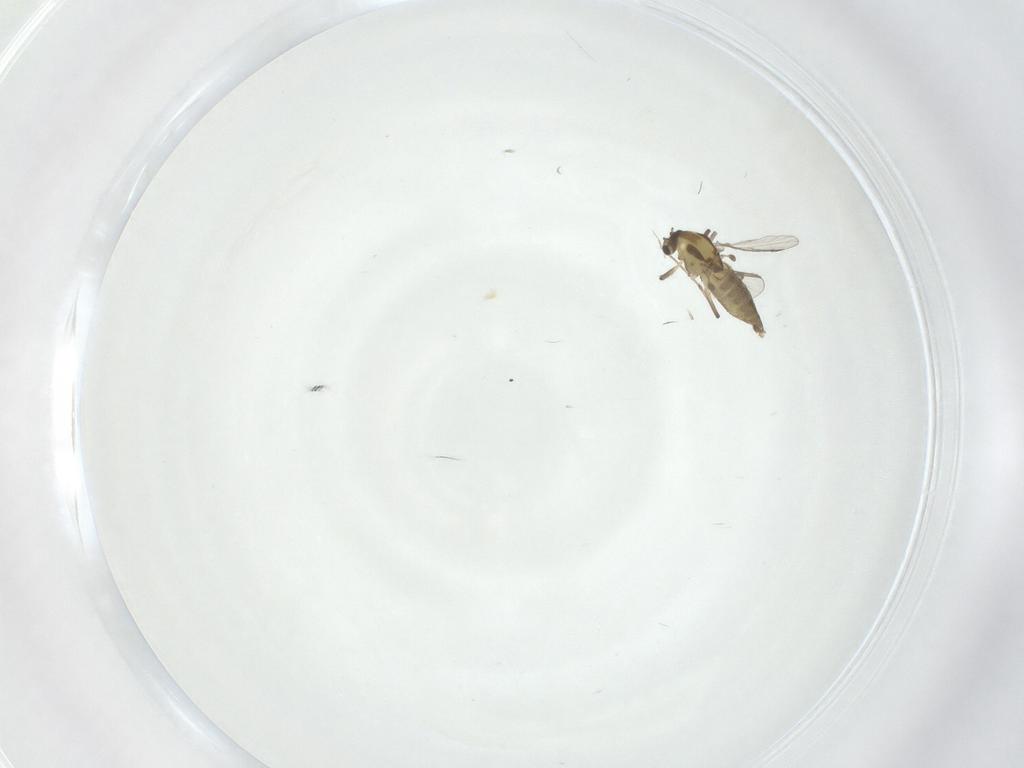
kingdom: Animalia
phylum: Arthropoda
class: Insecta
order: Diptera
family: Chironomidae
